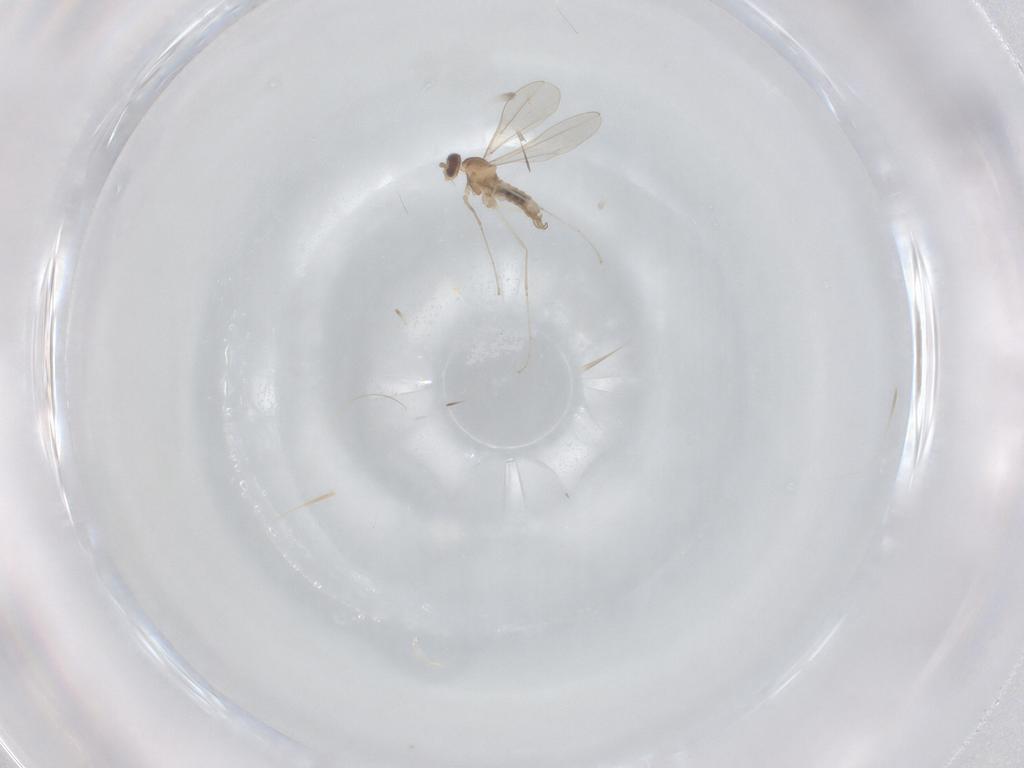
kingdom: Animalia
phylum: Arthropoda
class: Insecta
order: Diptera
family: Cecidomyiidae
